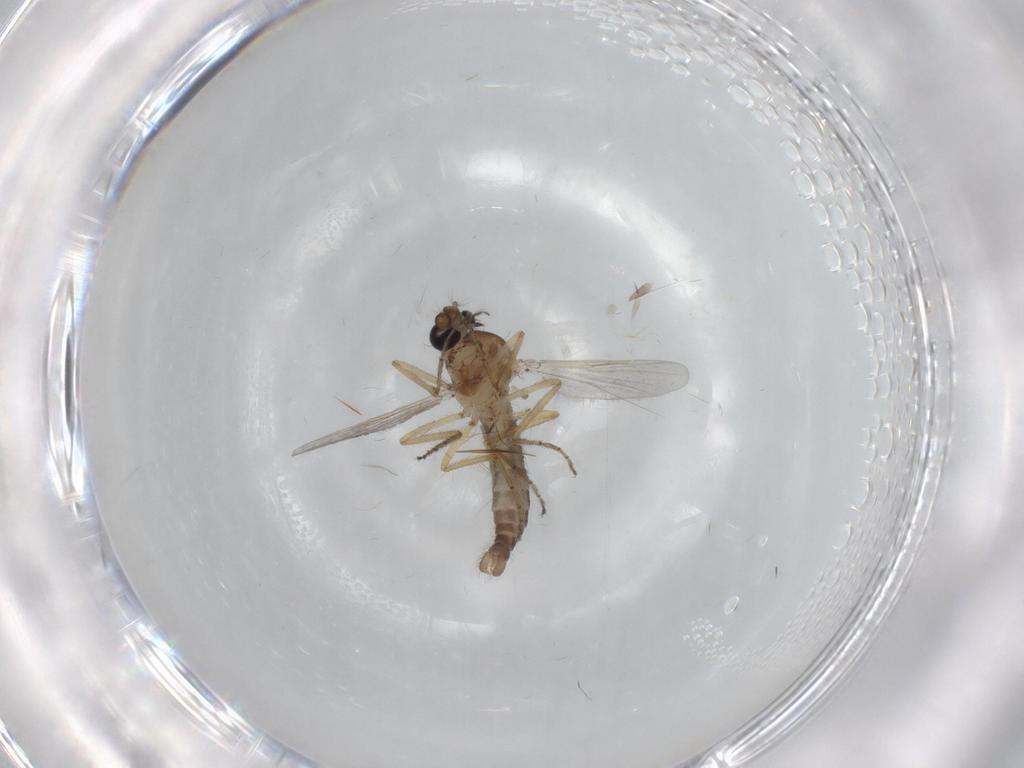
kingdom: Animalia
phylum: Arthropoda
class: Insecta
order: Diptera
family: Ceratopogonidae
